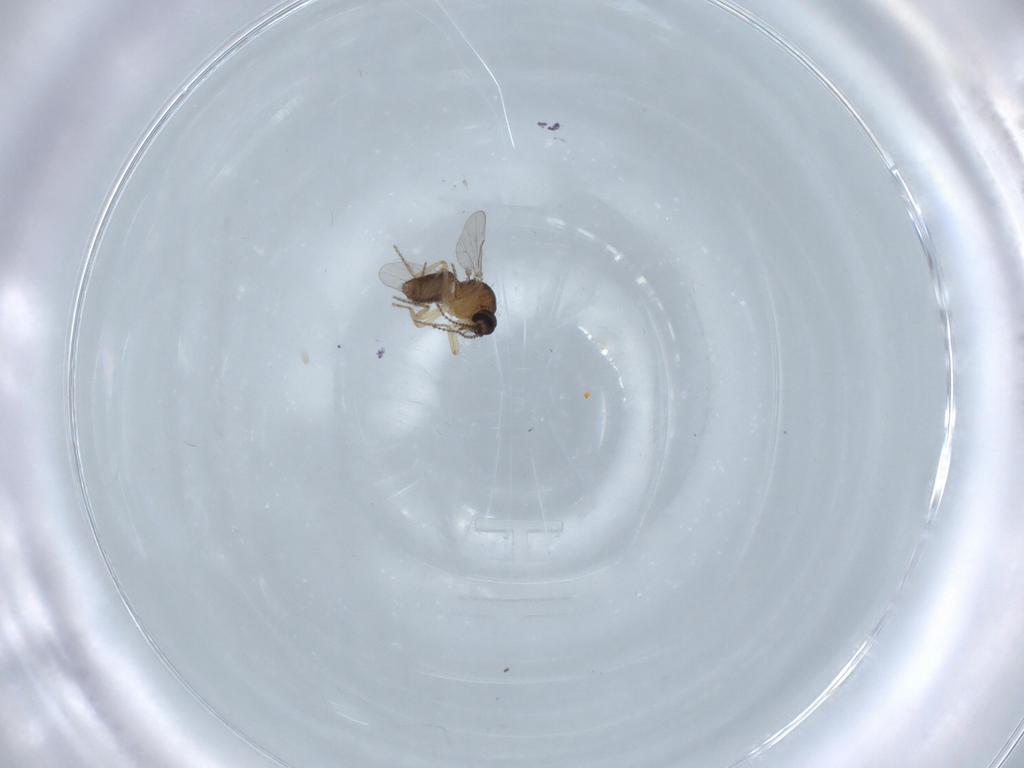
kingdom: Animalia
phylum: Arthropoda
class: Insecta
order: Diptera
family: Ceratopogonidae
